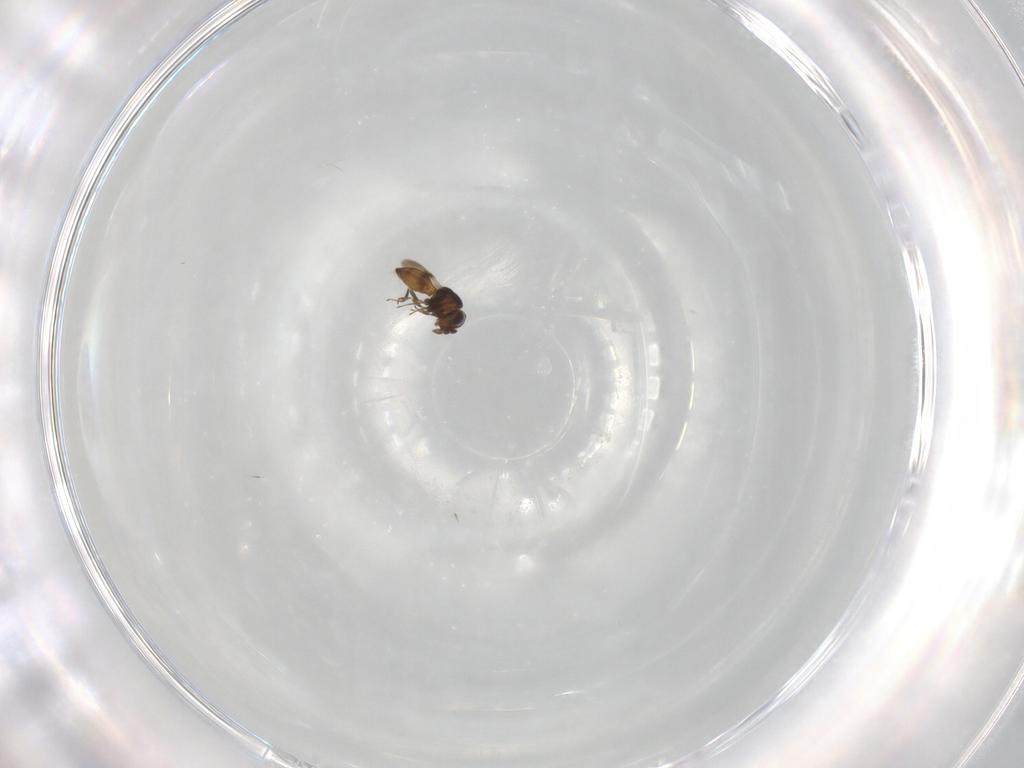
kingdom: Animalia
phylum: Arthropoda
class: Insecta
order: Hymenoptera
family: Scelionidae
